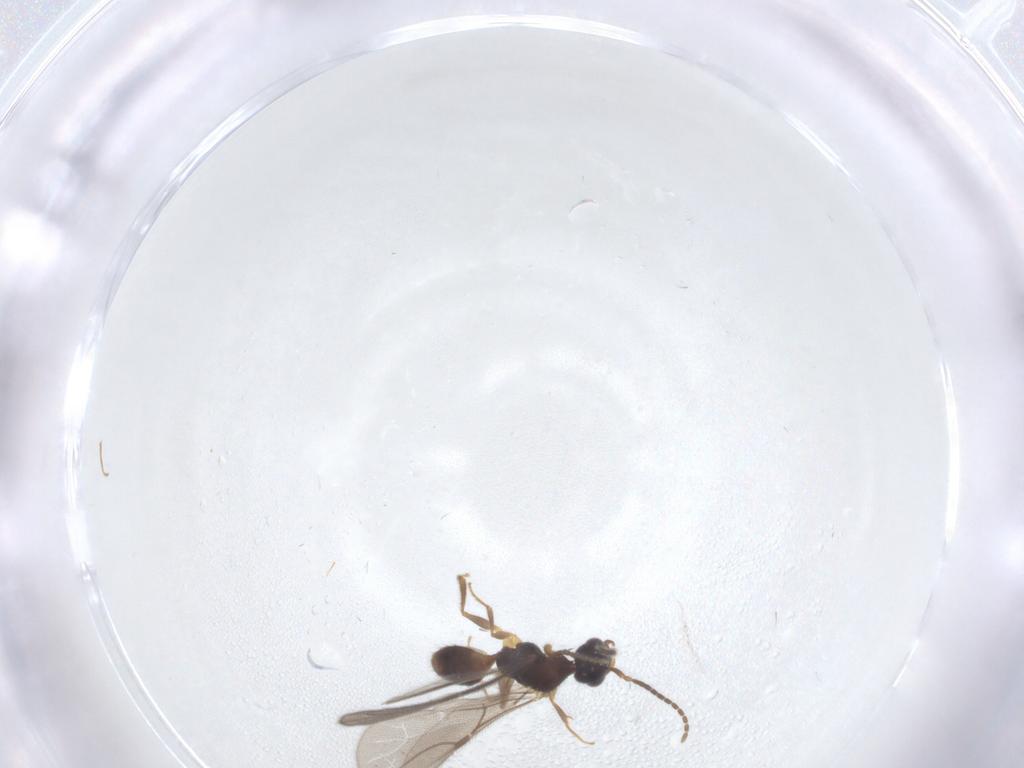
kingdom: Animalia
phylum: Arthropoda
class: Insecta
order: Hymenoptera
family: Bethylidae
